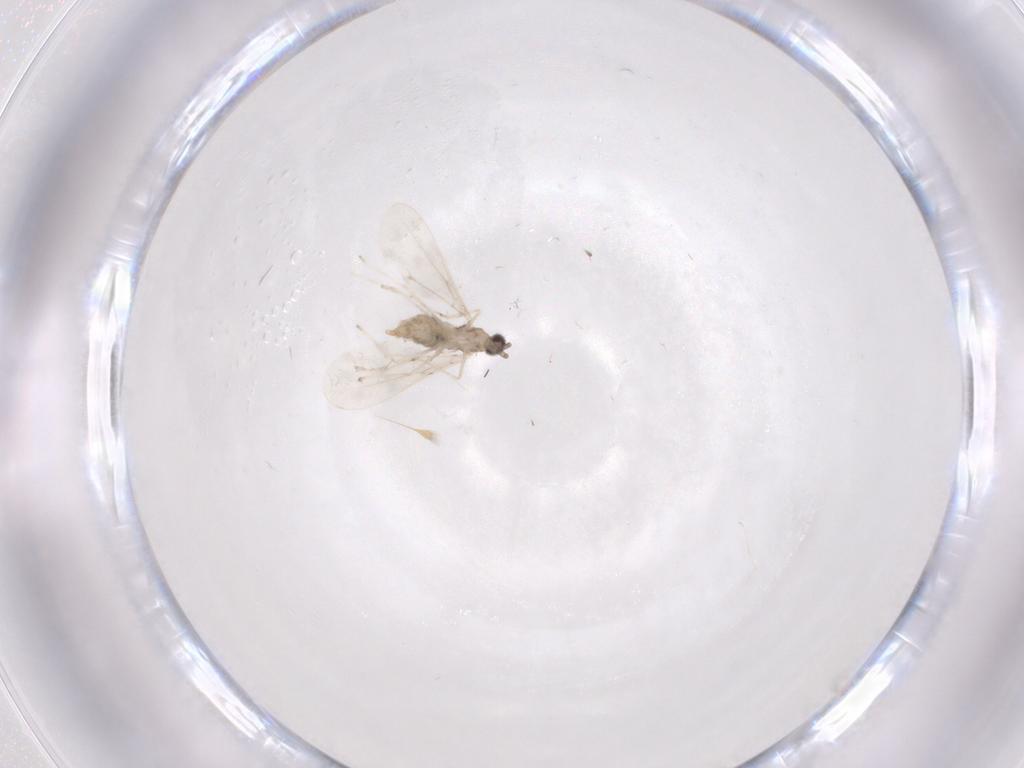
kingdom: Animalia
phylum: Arthropoda
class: Insecta
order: Diptera
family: Cecidomyiidae
